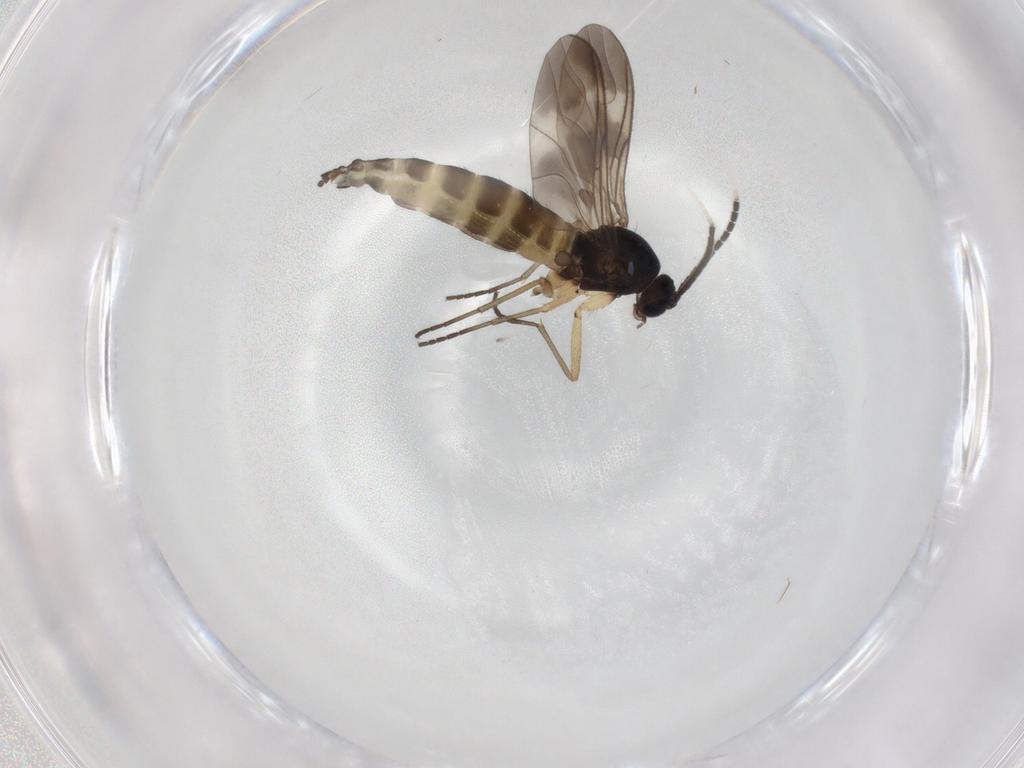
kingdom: Animalia
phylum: Arthropoda
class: Insecta
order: Diptera
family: Sciaridae
